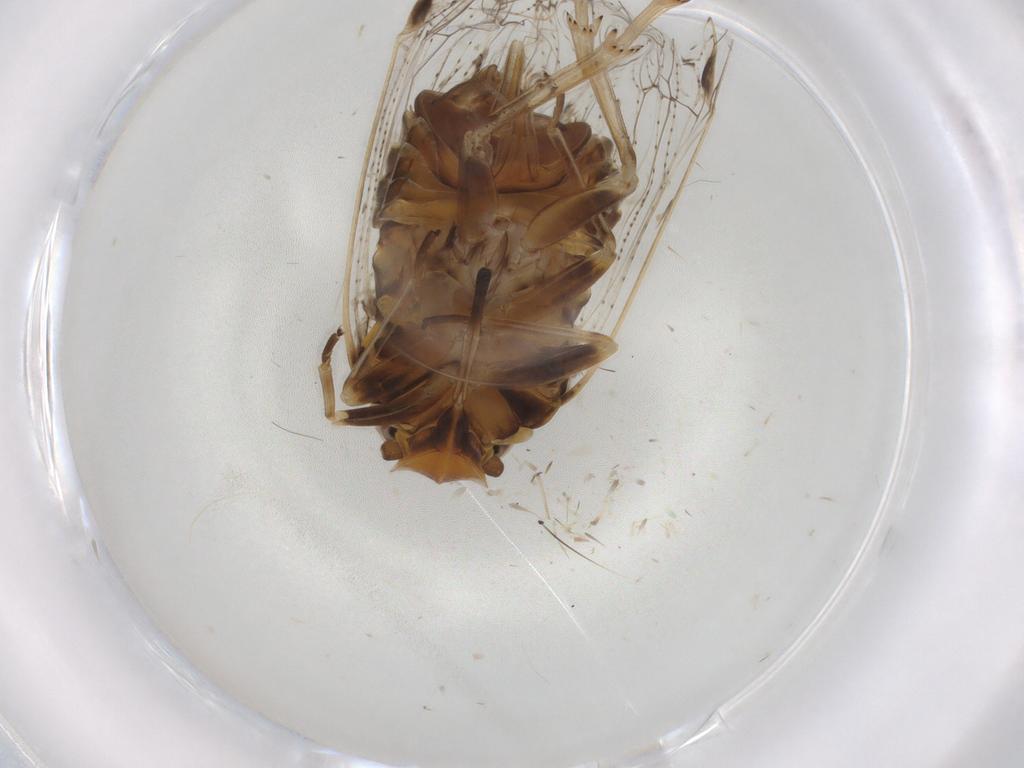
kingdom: Animalia
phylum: Arthropoda
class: Insecta
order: Hemiptera
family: Cixiidae
